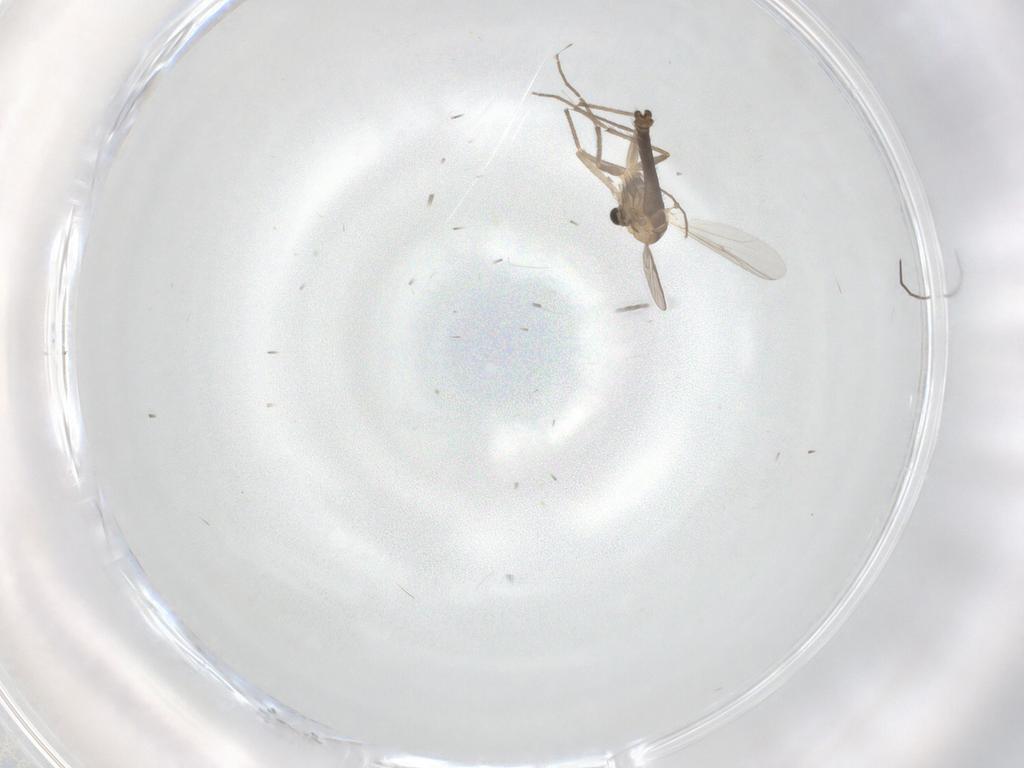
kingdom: Animalia
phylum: Arthropoda
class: Insecta
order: Diptera
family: Chironomidae
